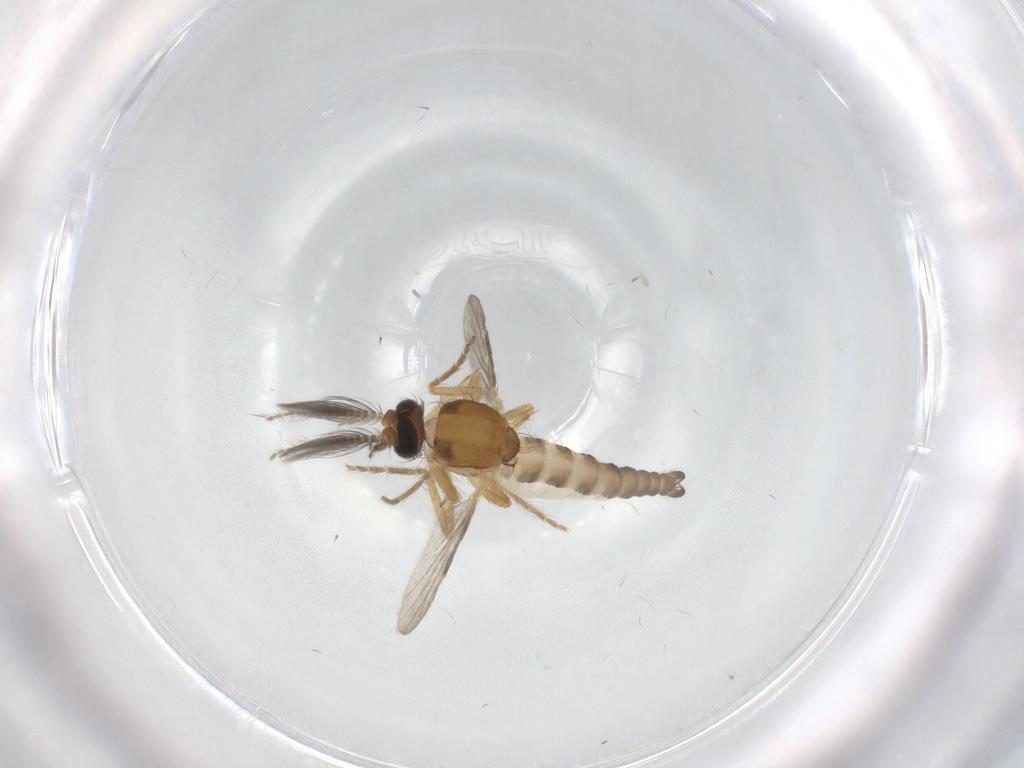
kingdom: Animalia
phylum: Arthropoda
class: Insecta
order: Diptera
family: Ceratopogonidae
